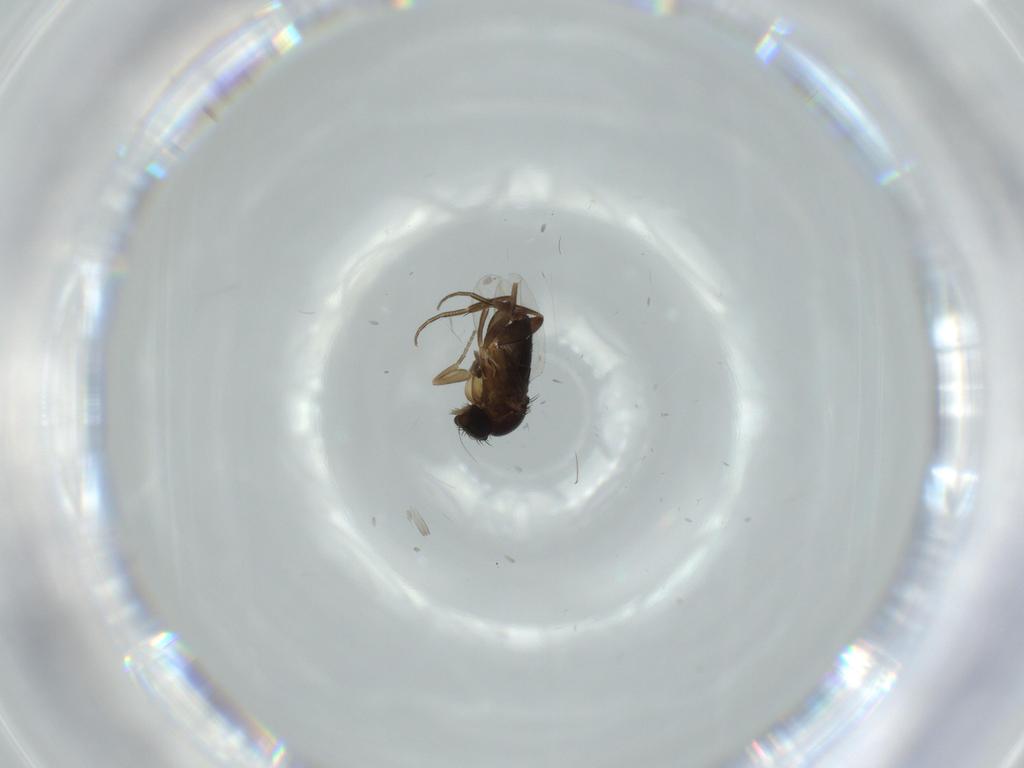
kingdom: Animalia
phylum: Arthropoda
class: Insecta
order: Diptera
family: Phoridae
